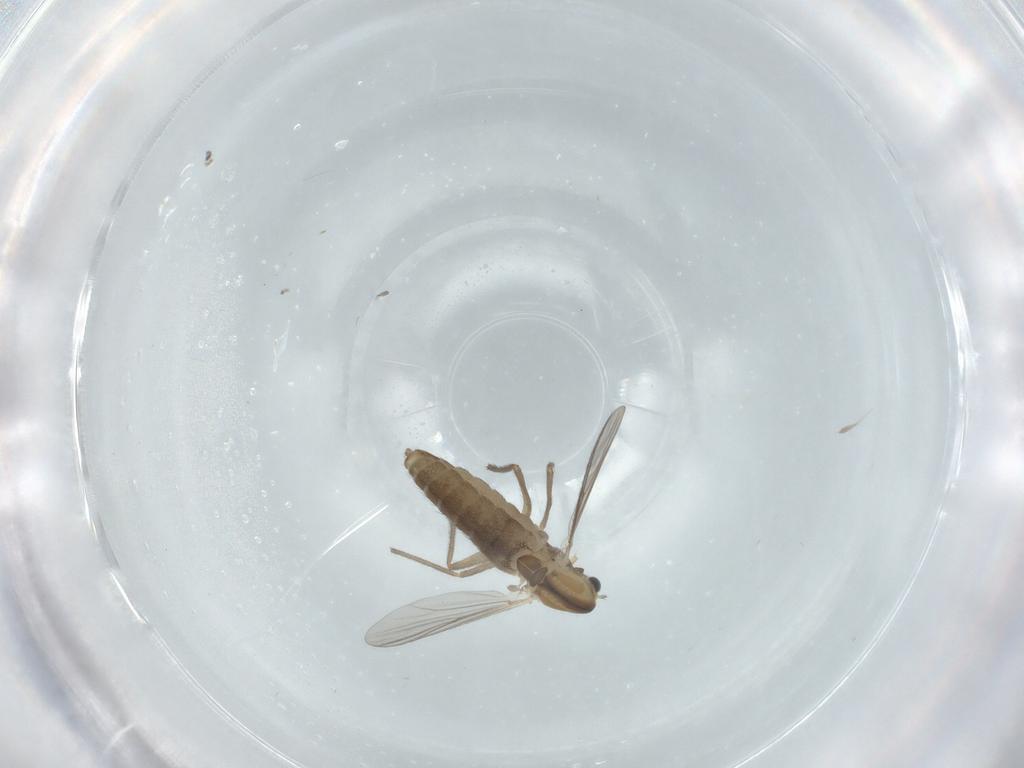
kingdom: Animalia
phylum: Arthropoda
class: Insecta
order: Diptera
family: Chironomidae
